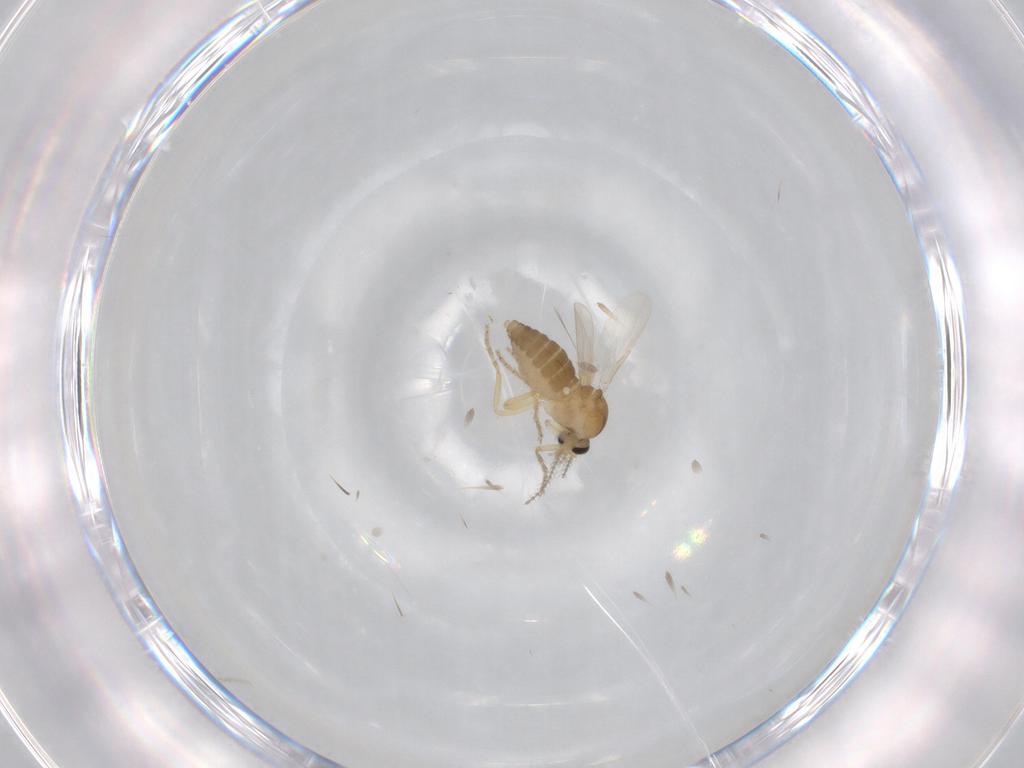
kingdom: Animalia
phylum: Arthropoda
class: Insecta
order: Diptera
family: Ceratopogonidae
